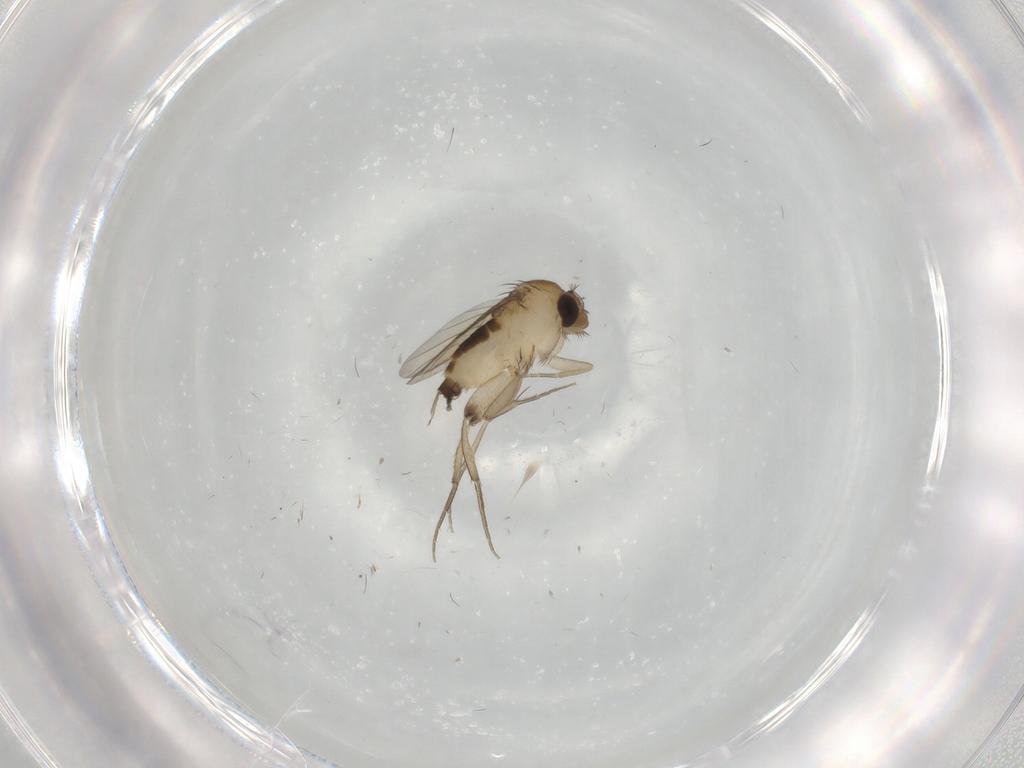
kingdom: Animalia
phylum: Arthropoda
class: Insecta
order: Diptera
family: Phoridae
